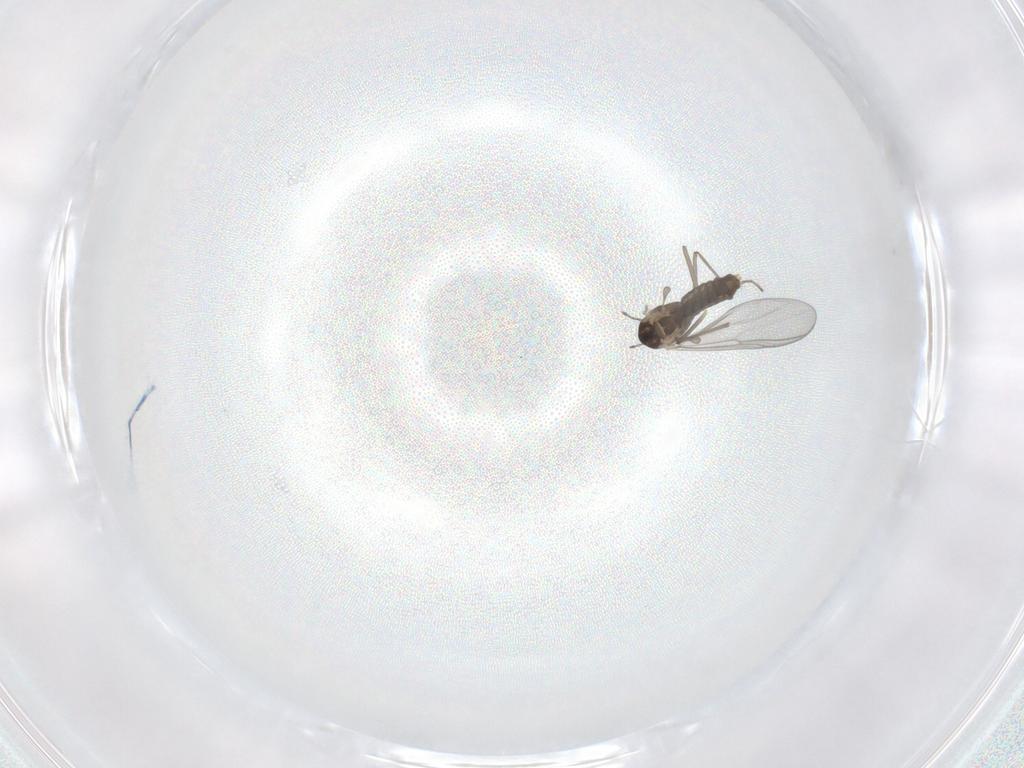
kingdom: Animalia
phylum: Arthropoda
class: Insecta
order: Diptera
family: Chironomidae
